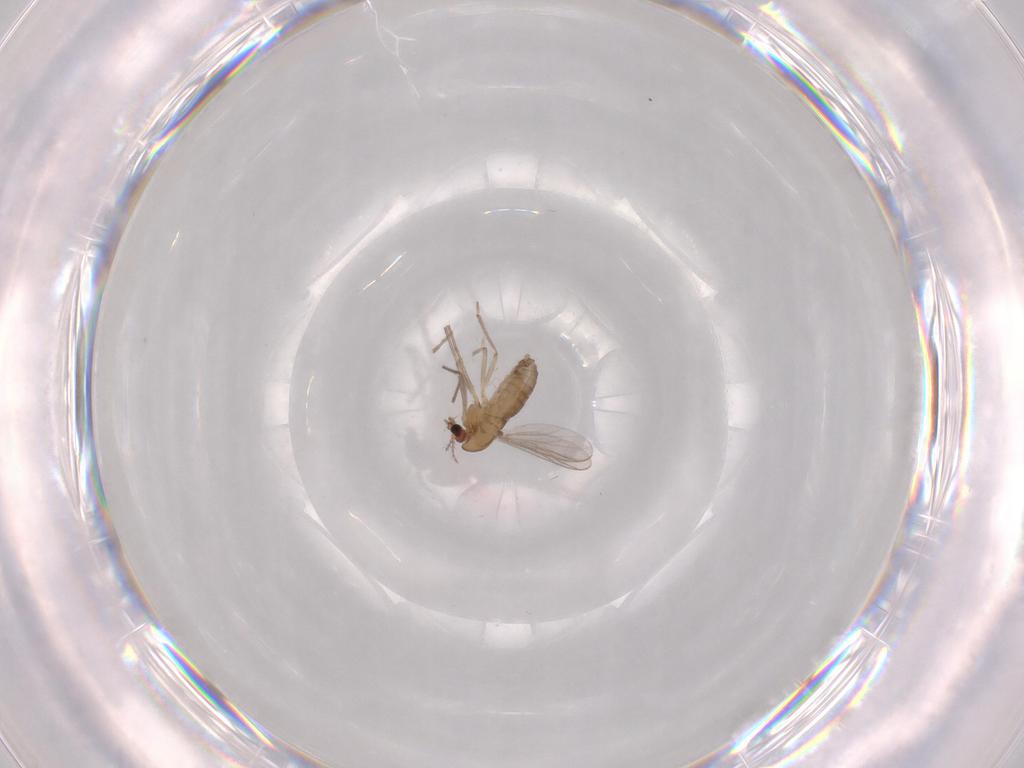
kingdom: Animalia
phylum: Arthropoda
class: Insecta
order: Diptera
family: Chironomidae
